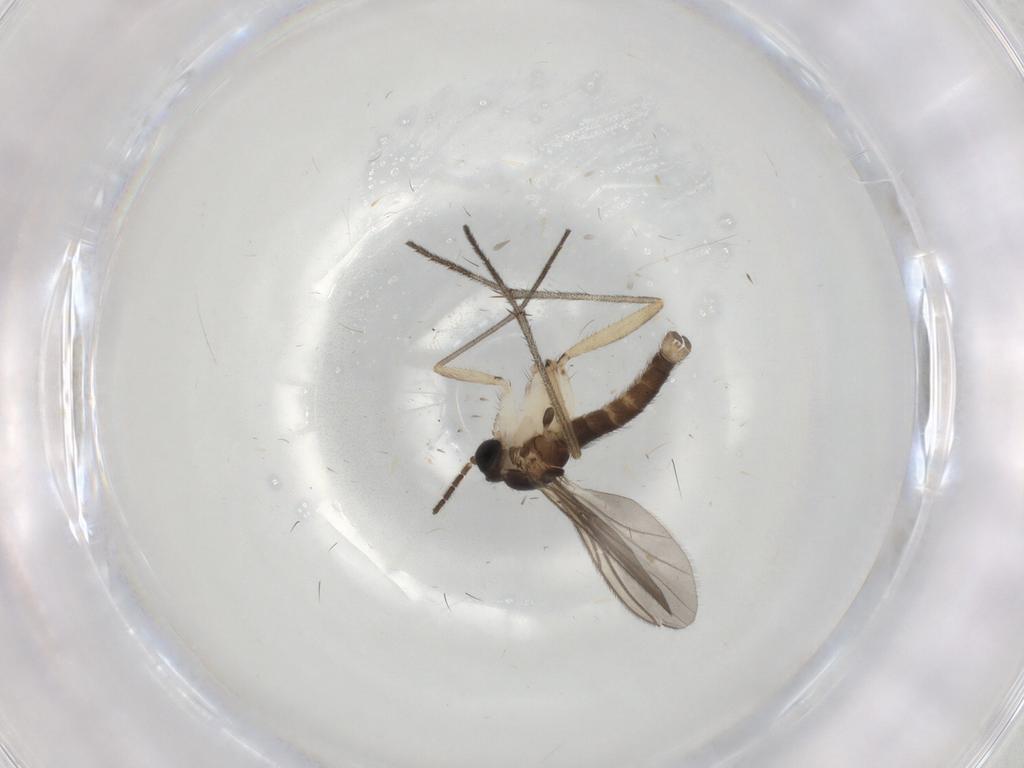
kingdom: Animalia
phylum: Arthropoda
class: Insecta
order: Diptera
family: Sciaridae
